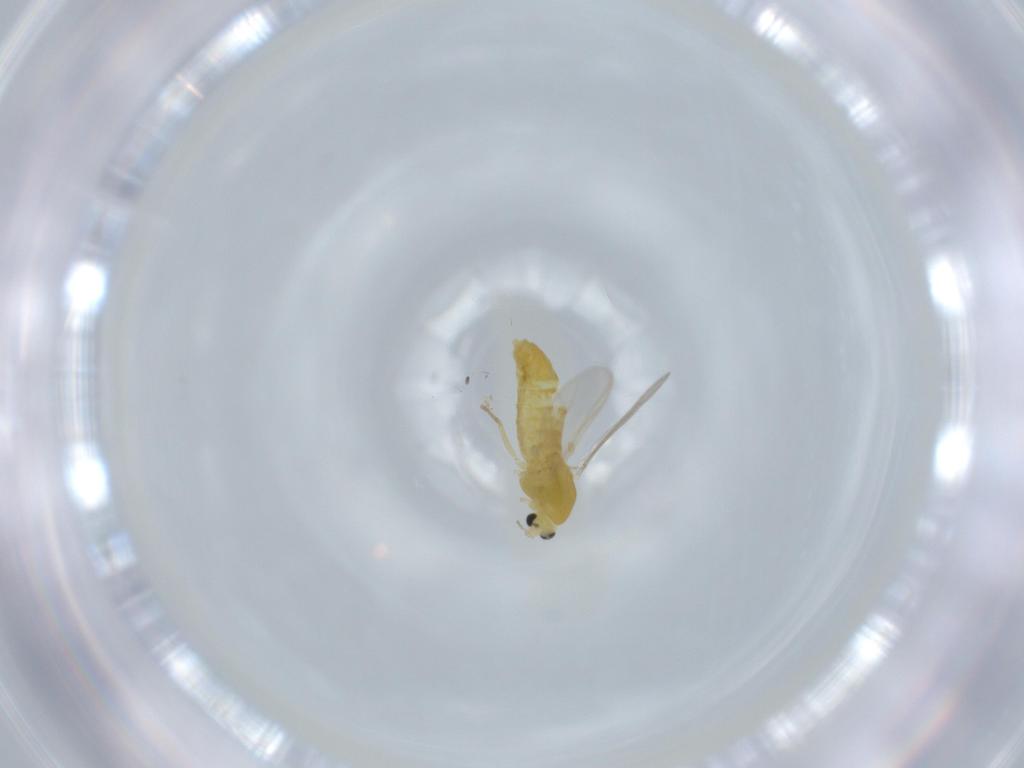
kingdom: Animalia
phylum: Arthropoda
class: Insecta
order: Diptera
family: Chironomidae
